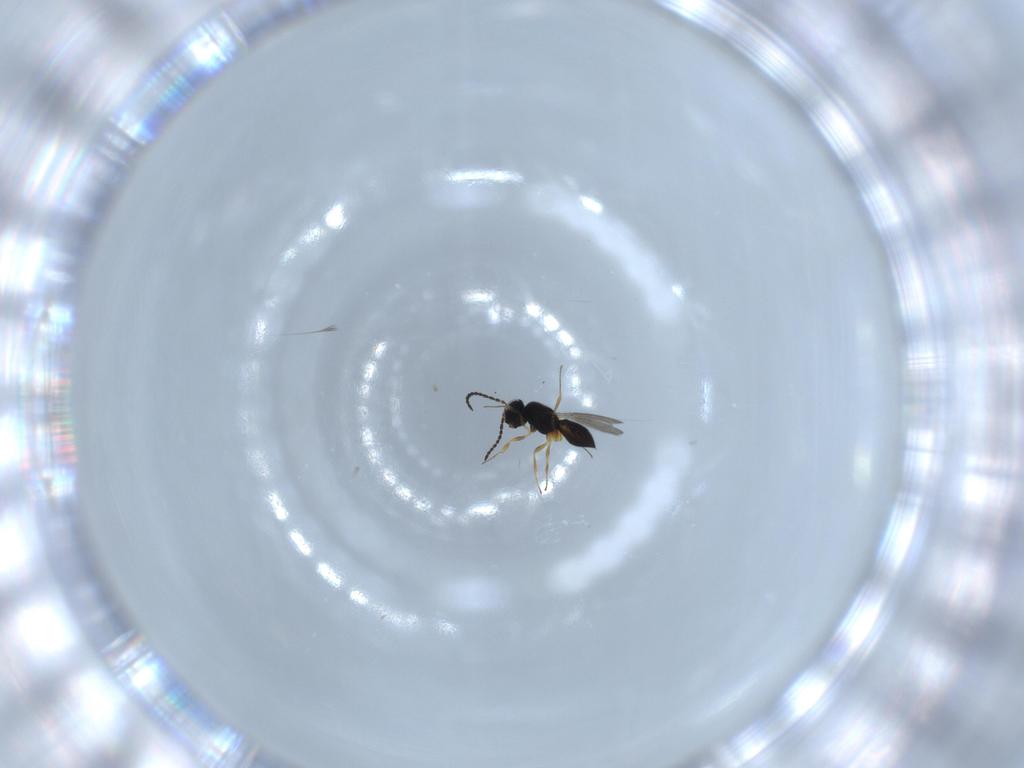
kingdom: Animalia
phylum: Arthropoda
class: Insecta
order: Hymenoptera
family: Scelionidae
